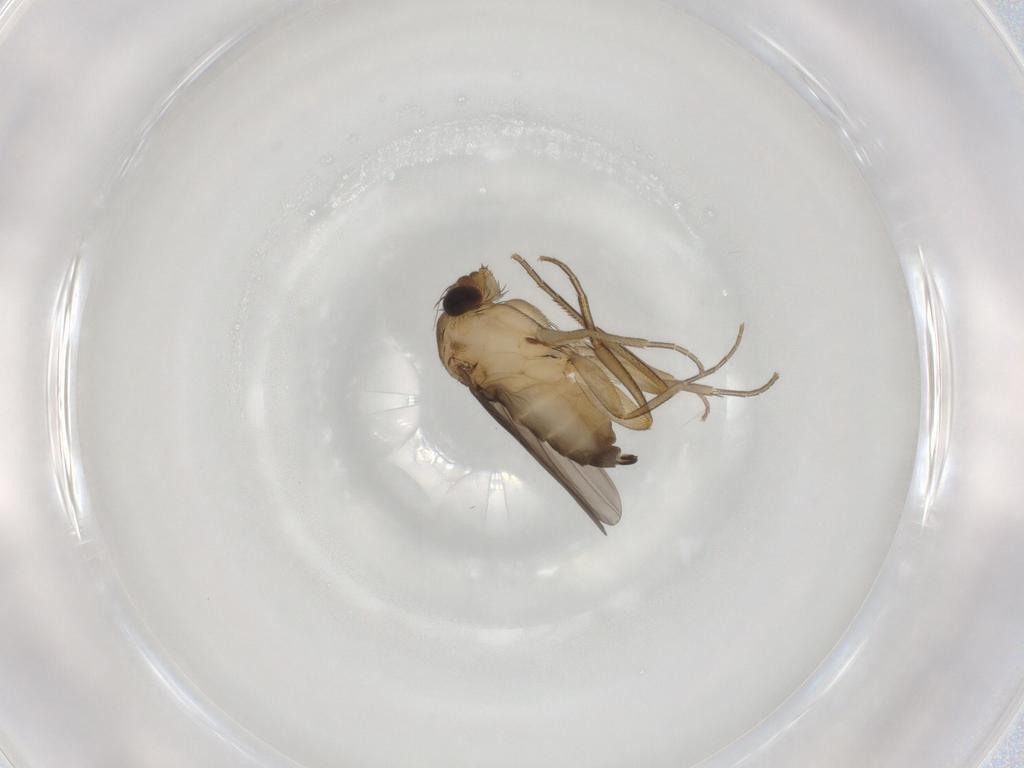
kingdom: Animalia
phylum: Arthropoda
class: Insecta
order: Diptera
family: Phoridae
